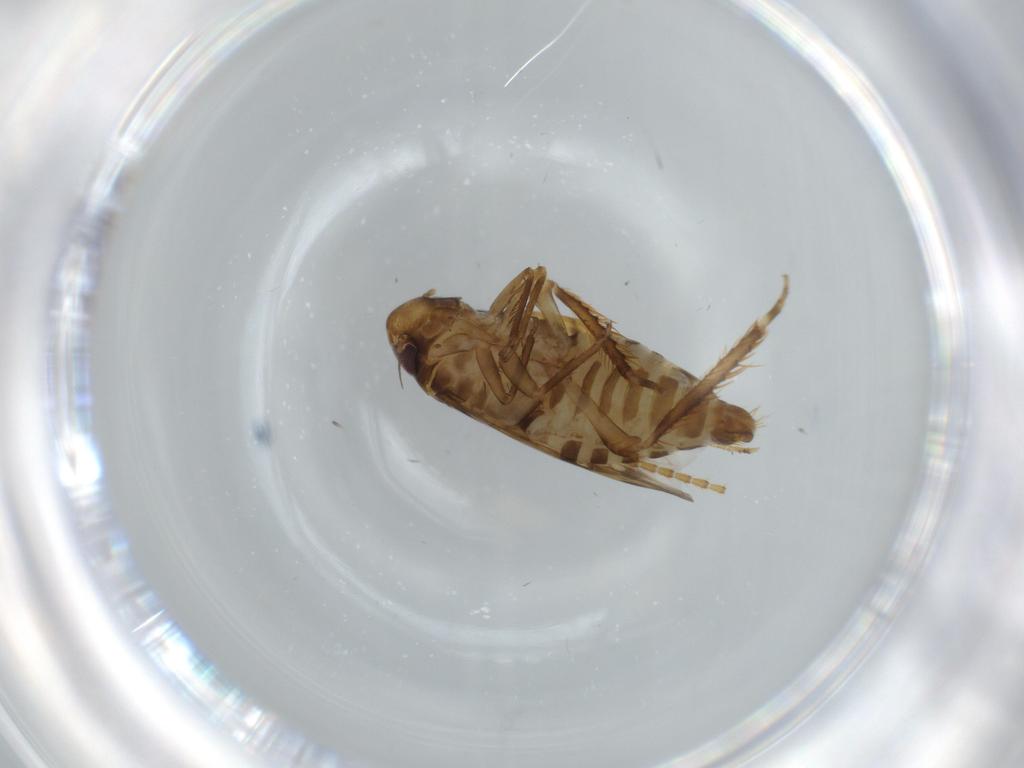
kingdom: Animalia
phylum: Arthropoda
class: Insecta
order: Hemiptera
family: Cicadellidae
